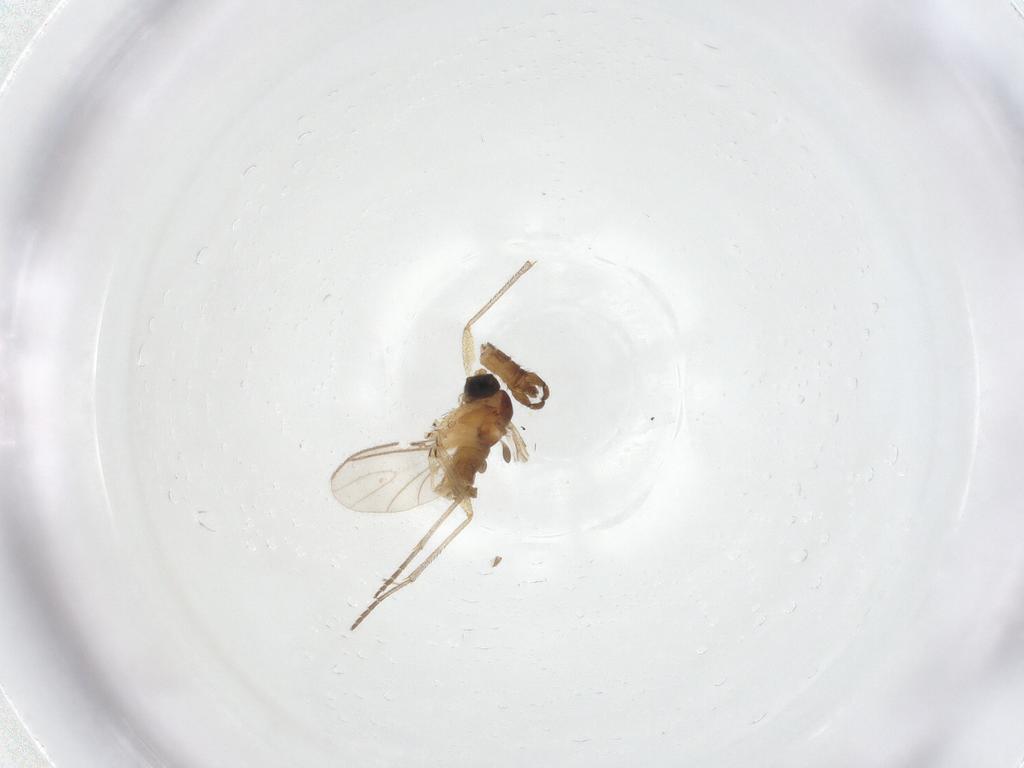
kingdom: Animalia
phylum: Arthropoda
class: Insecta
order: Diptera
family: Sciaridae
